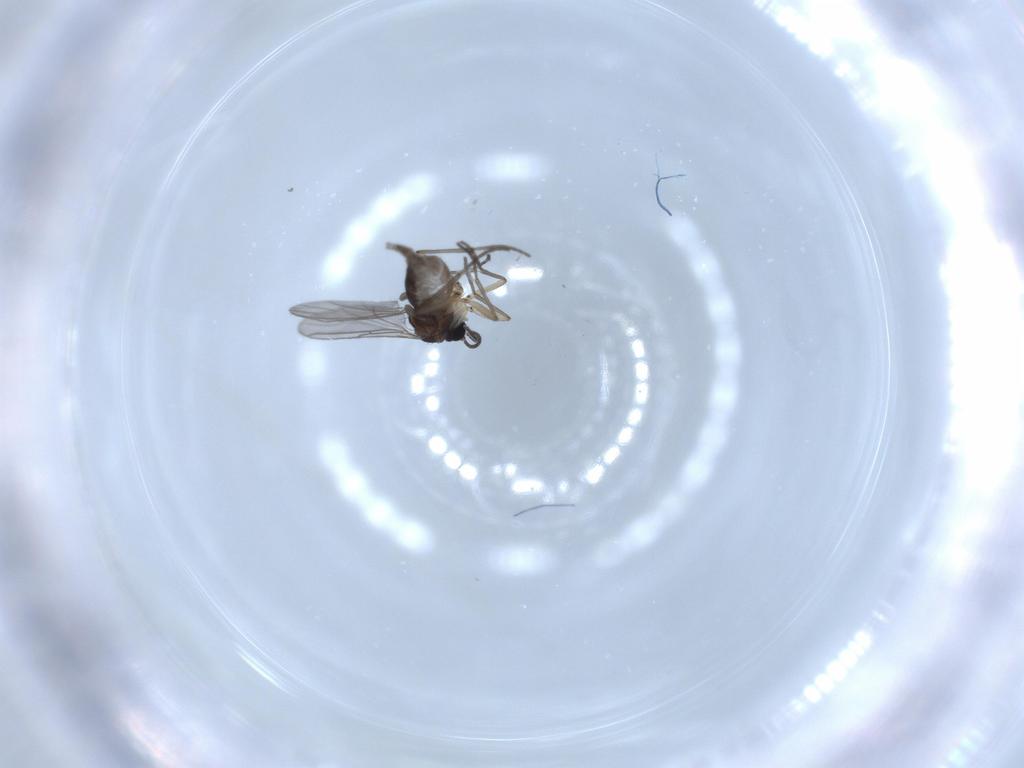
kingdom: Animalia
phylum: Arthropoda
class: Insecta
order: Diptera
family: Sciaridae
